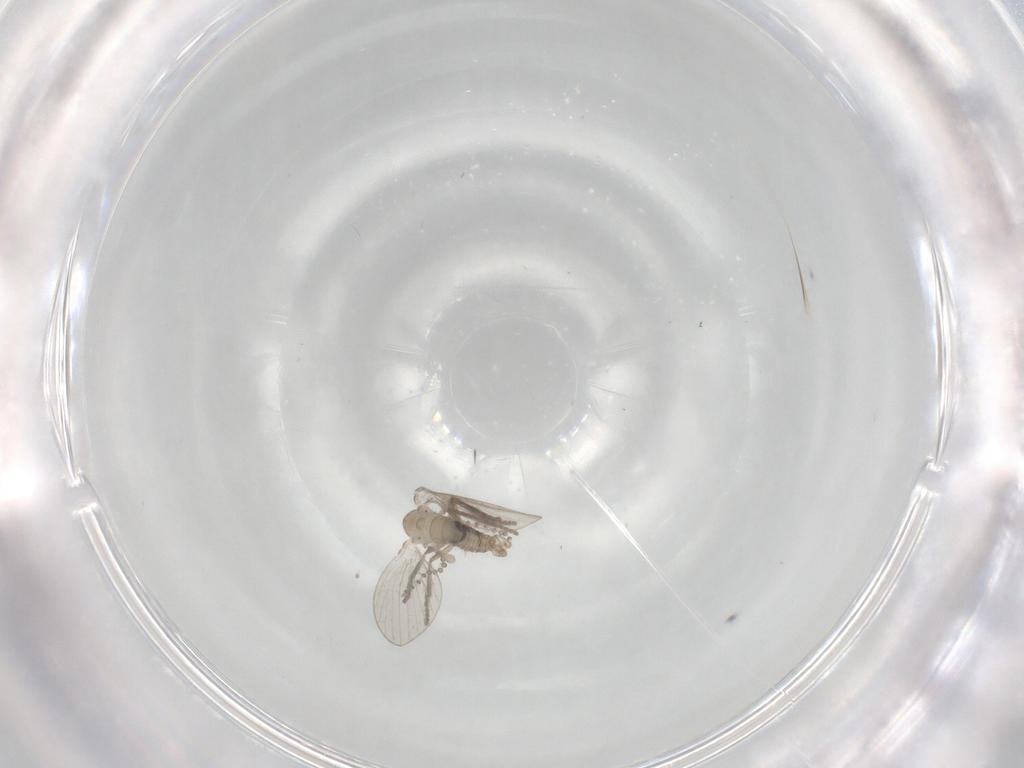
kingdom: Animalia
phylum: Arthropoda
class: Insecta
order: Diptera
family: Psychodidae
